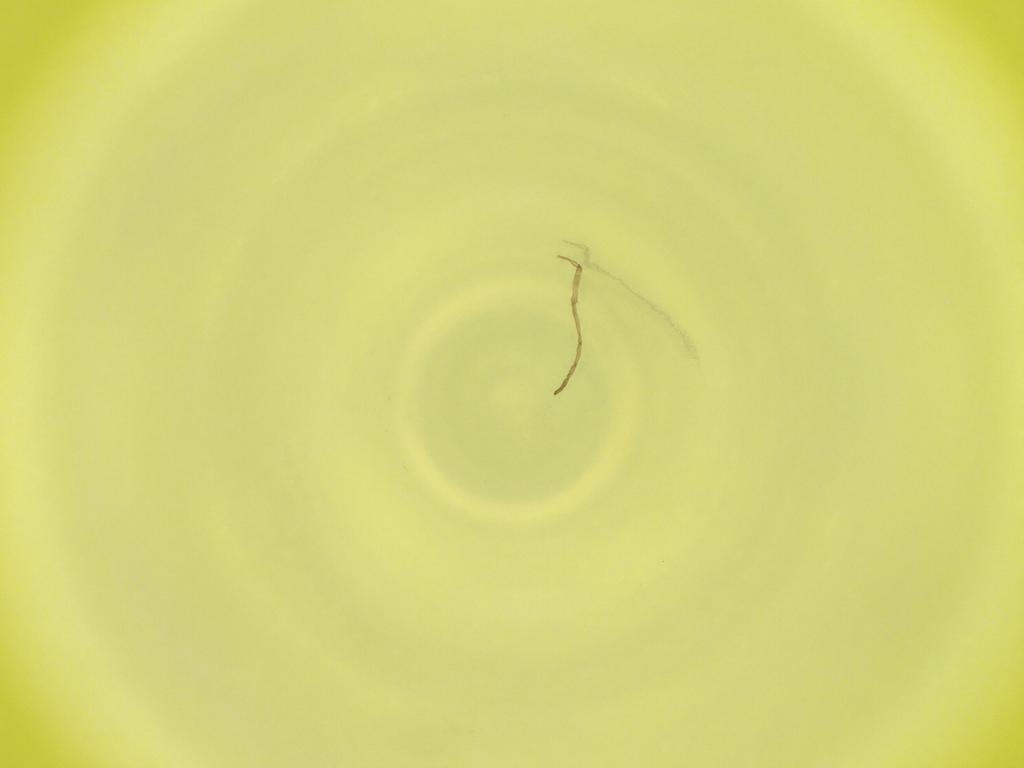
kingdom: Animalia
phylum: Arthropoda
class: Insecta
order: Diptera
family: Cecidomyiidae
